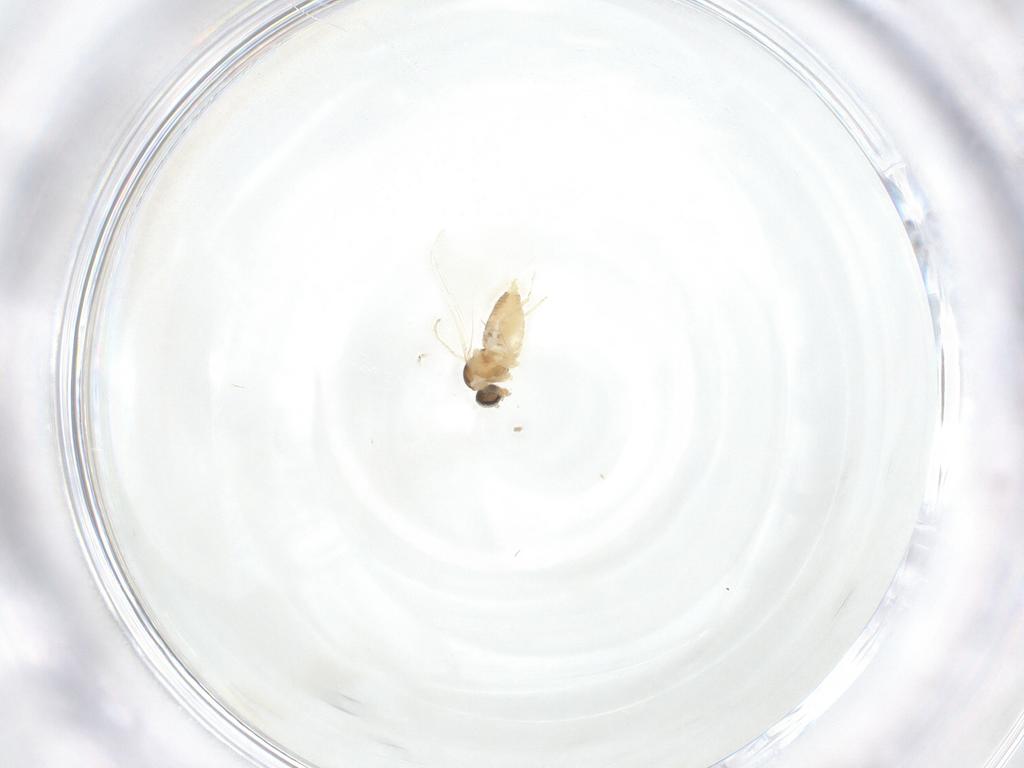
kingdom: Animalia
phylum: Arthropoda
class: Insecta
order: Diptera
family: Cecidomyiidae
